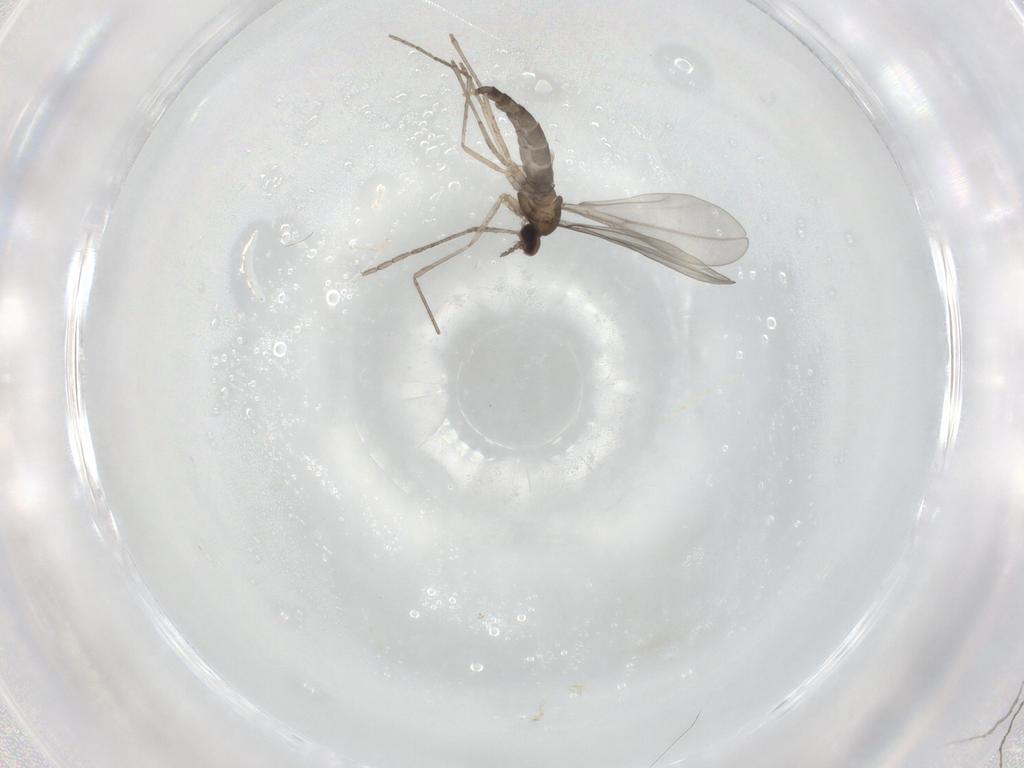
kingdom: Animalia
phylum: Arthropoda
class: Insecta
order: Diptera
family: Cecidomyiidae
